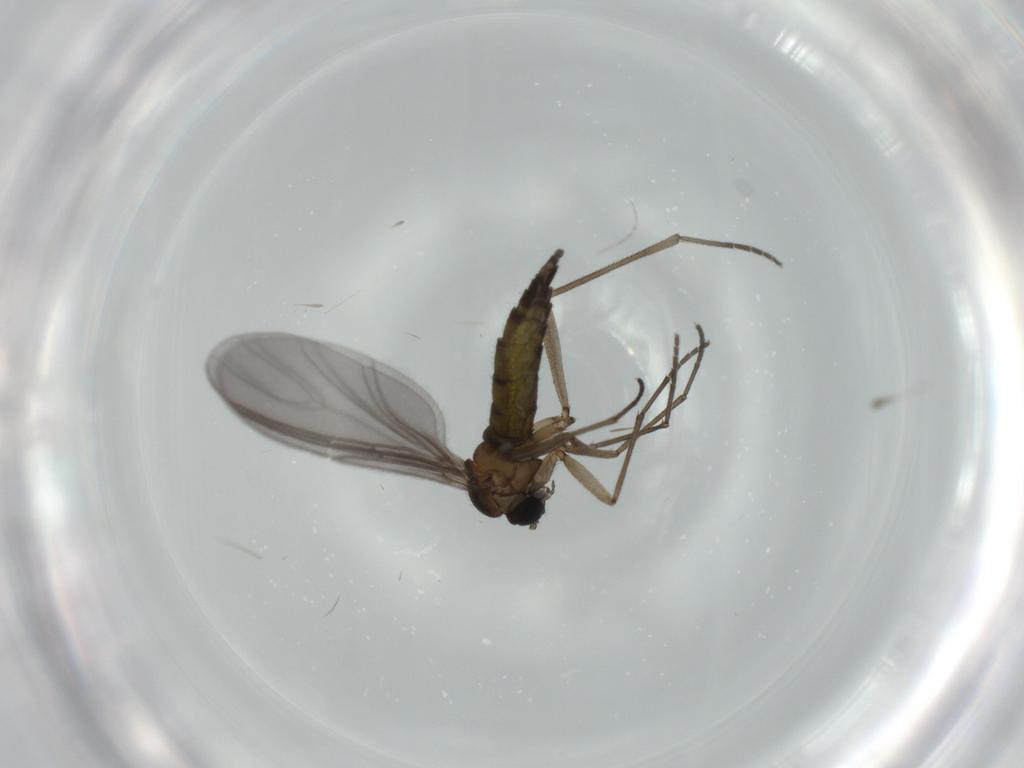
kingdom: Animalia
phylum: Arthropoda
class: Insecta
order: Diptera
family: Sciaridae
